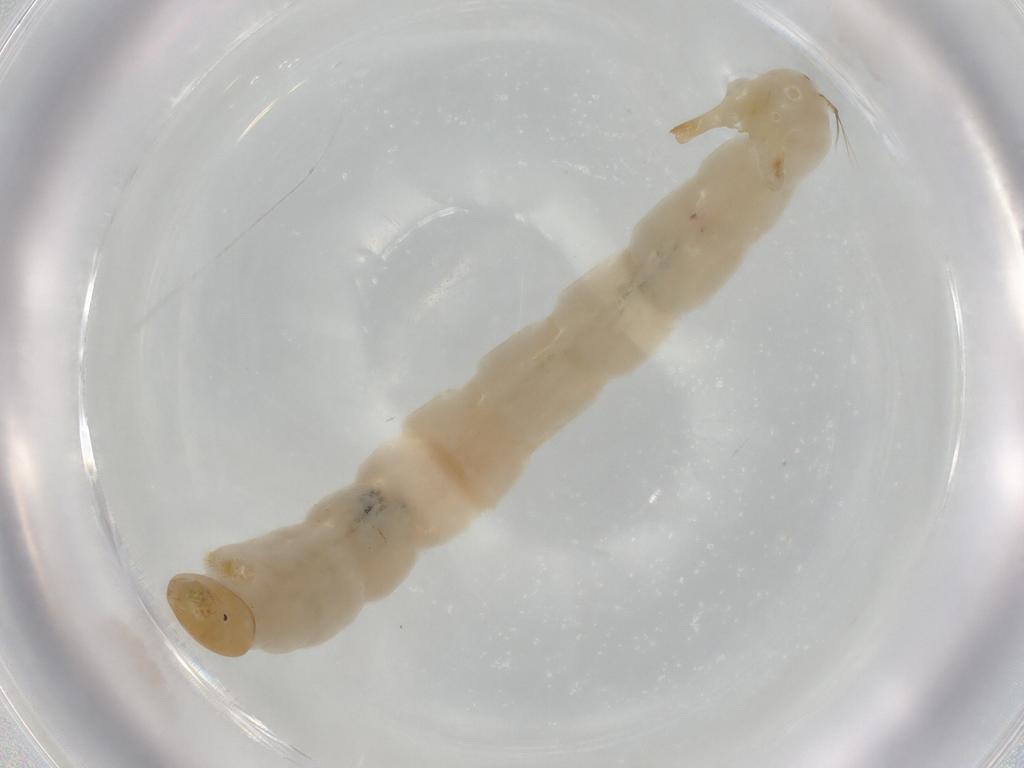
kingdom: Animalia
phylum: Arthropoda
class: Insecta
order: Diptera
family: Chironomidae
